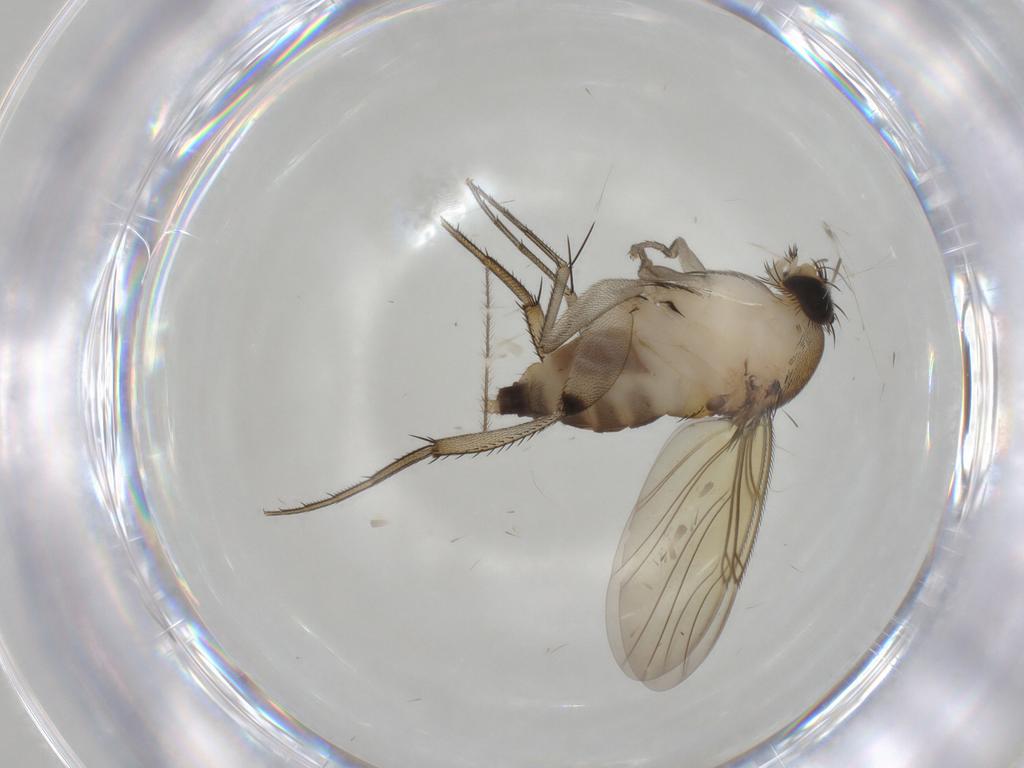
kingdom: Animalia
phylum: Arthropoda
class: Insecta
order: Diptera
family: Phoridae
